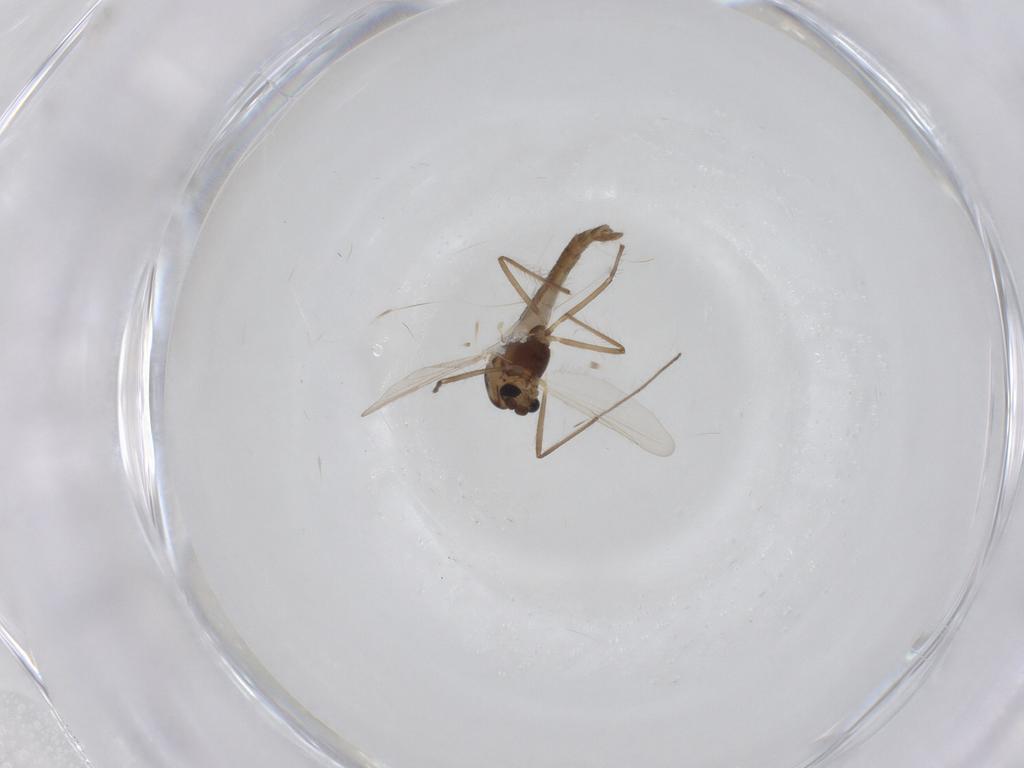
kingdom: Animalia
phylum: Arthropoda
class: Insecta
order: Diptera
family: Chironomidae
